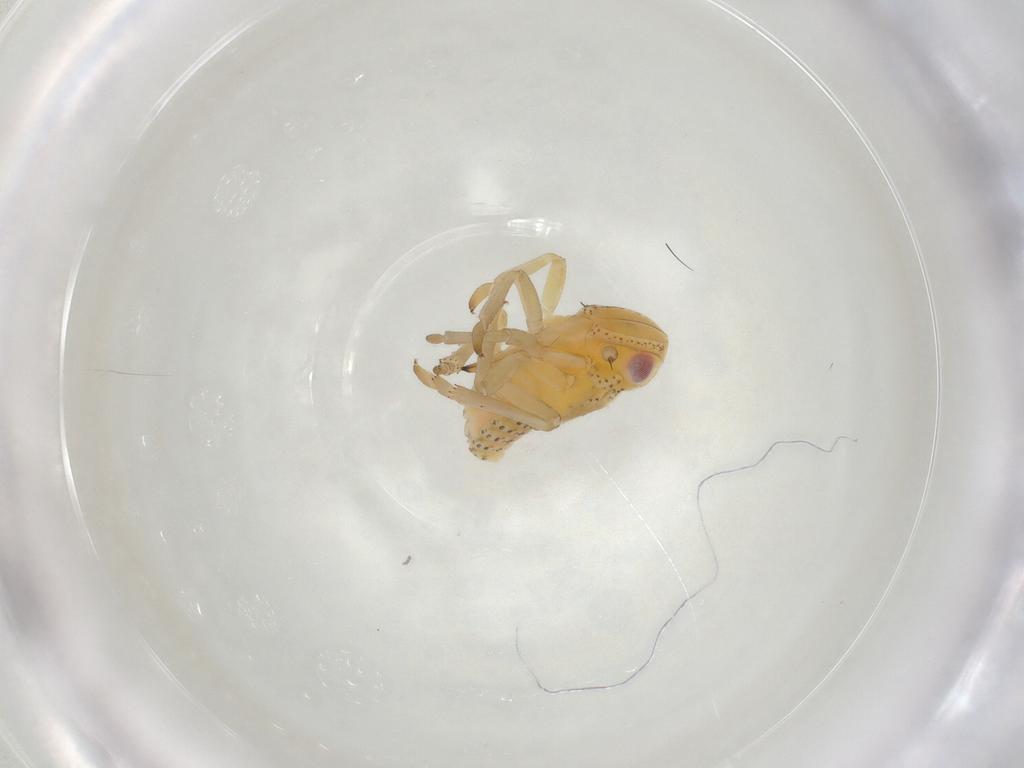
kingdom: Animalia
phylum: Arthropoda
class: Insecta
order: Hemiptera
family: Tropiduchidae
